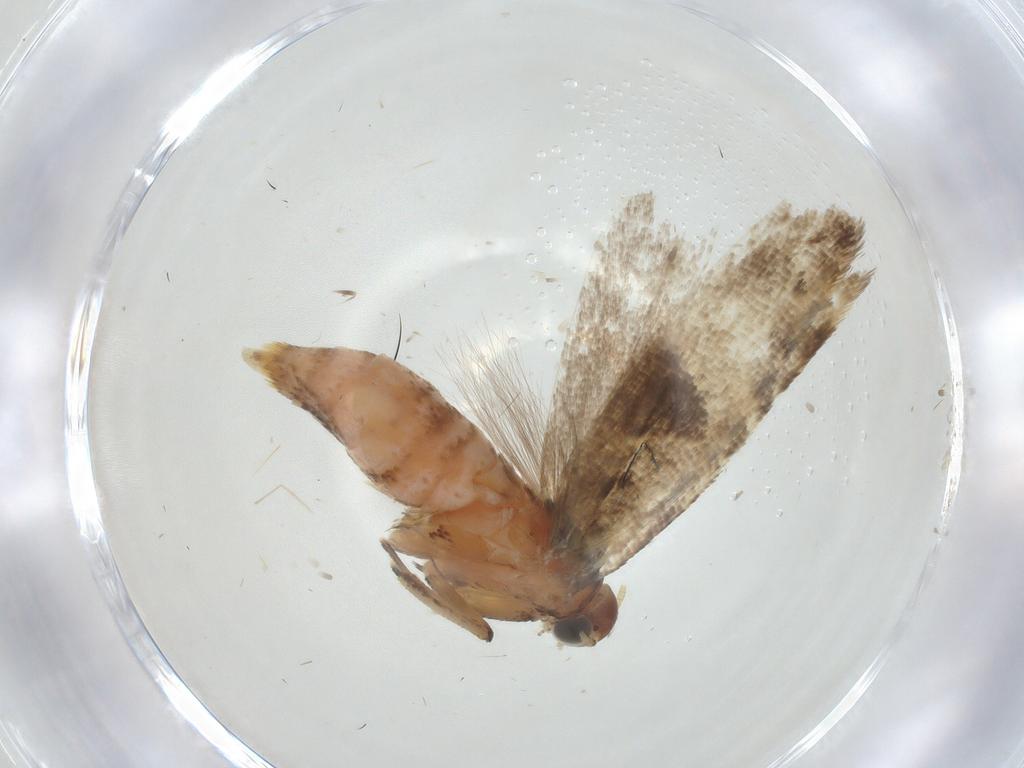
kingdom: Animalia
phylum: Arthropoda
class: Insecta
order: Lepidoptera
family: Gelechiidae
